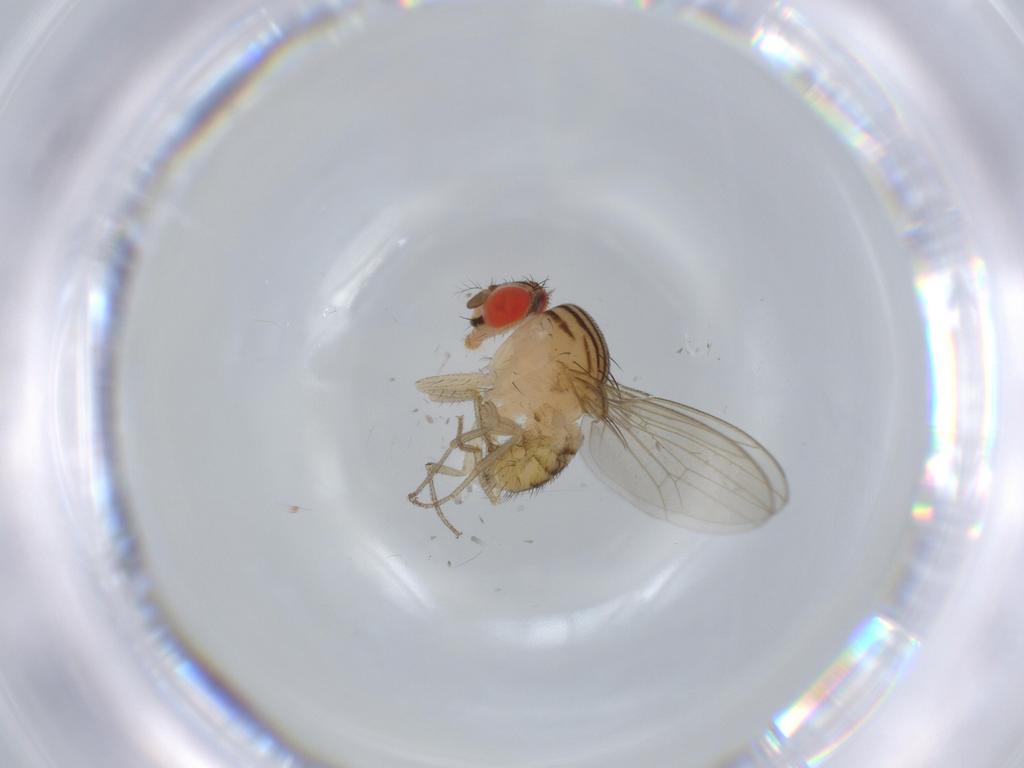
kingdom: Animalia
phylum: Arthropoda
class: Insecta
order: Diptera
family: Drosophilidae
